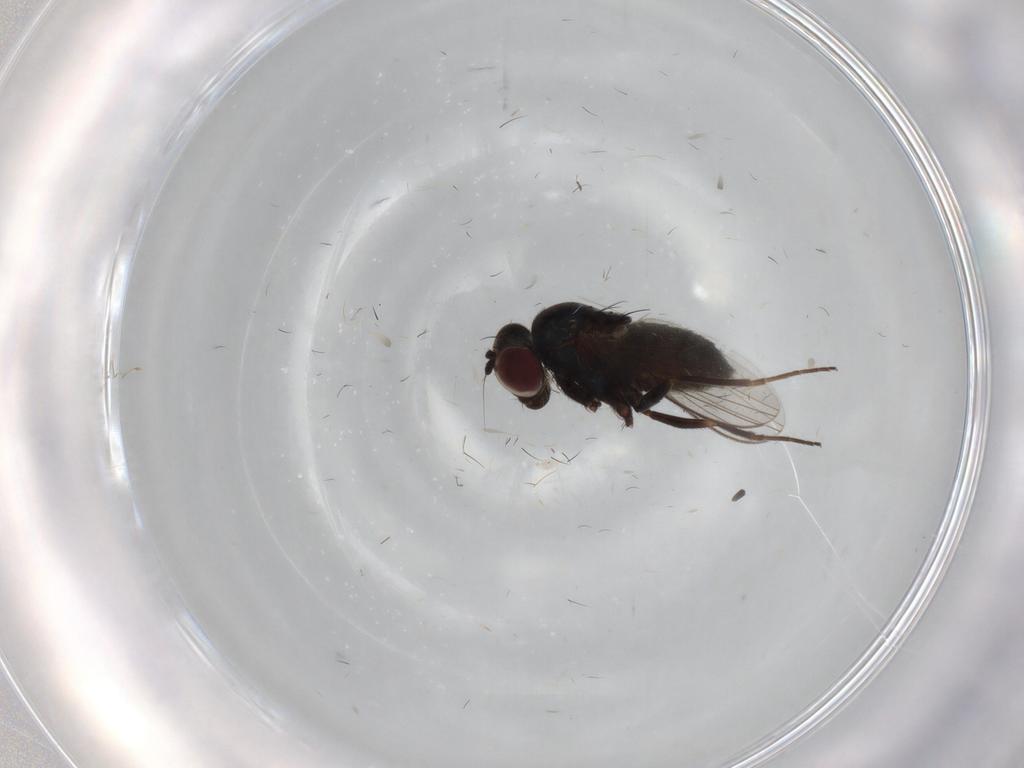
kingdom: Animalia
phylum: Arthropoda
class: Insecta
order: Diptera
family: Dolichopodidae
